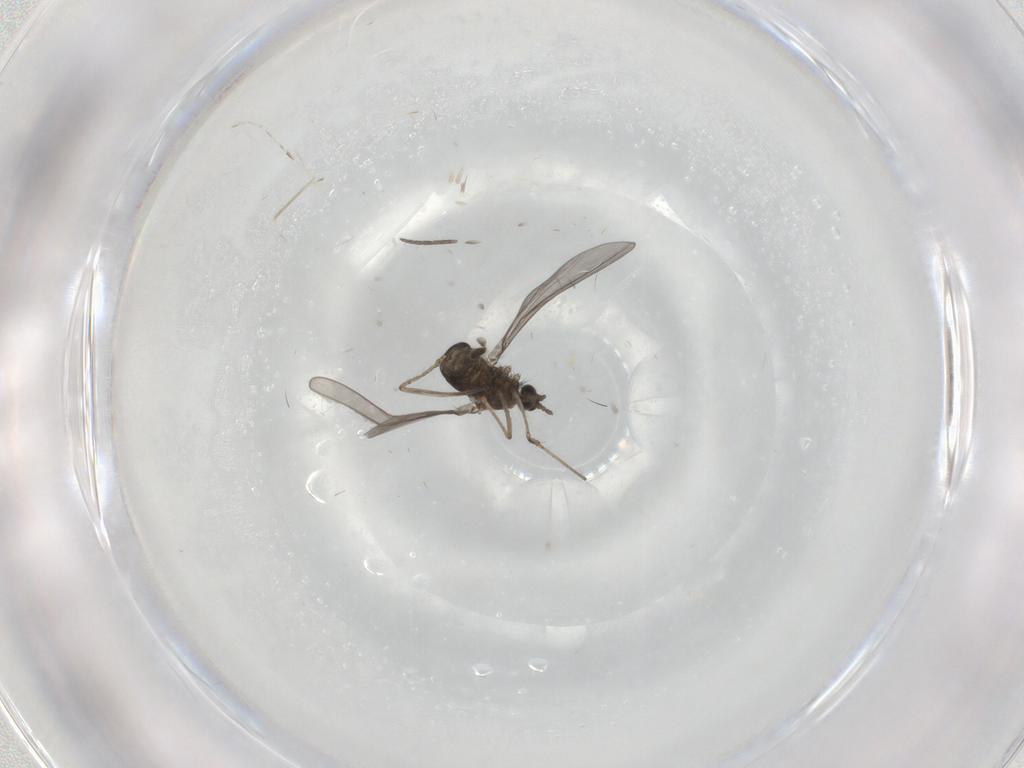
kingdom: Animalia
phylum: Arthropoda
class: Insecta
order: Diptera
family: Sciaridae
